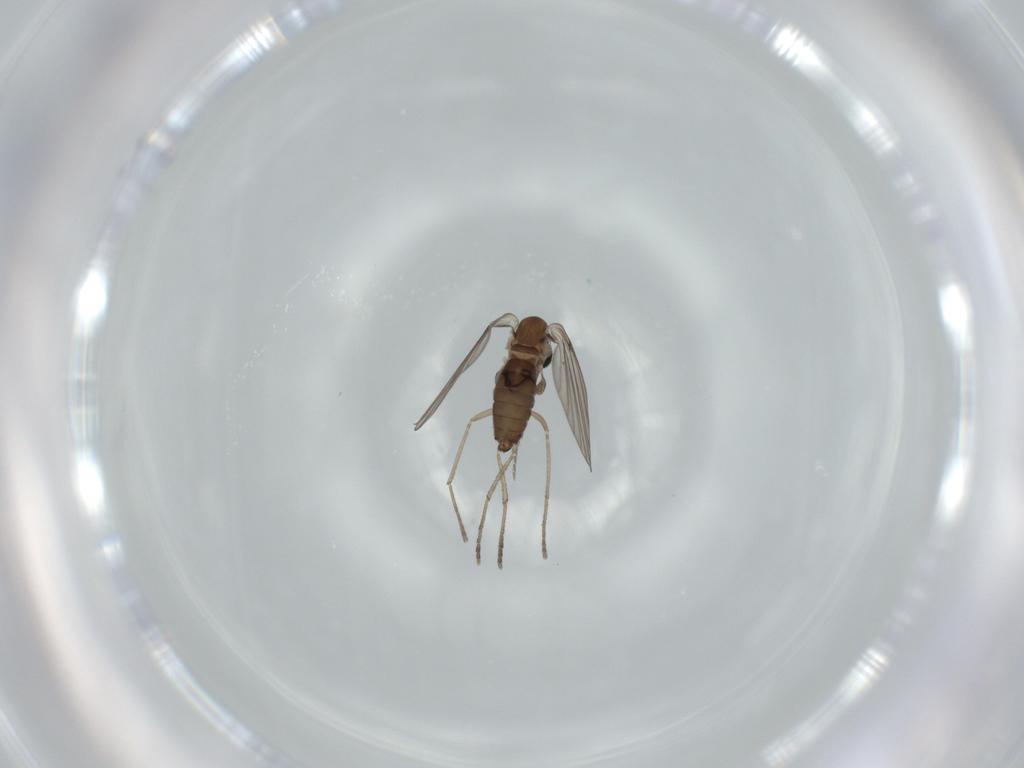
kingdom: Animalia
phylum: Arthropoda
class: Insecta
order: Diptera
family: Psychodidae
